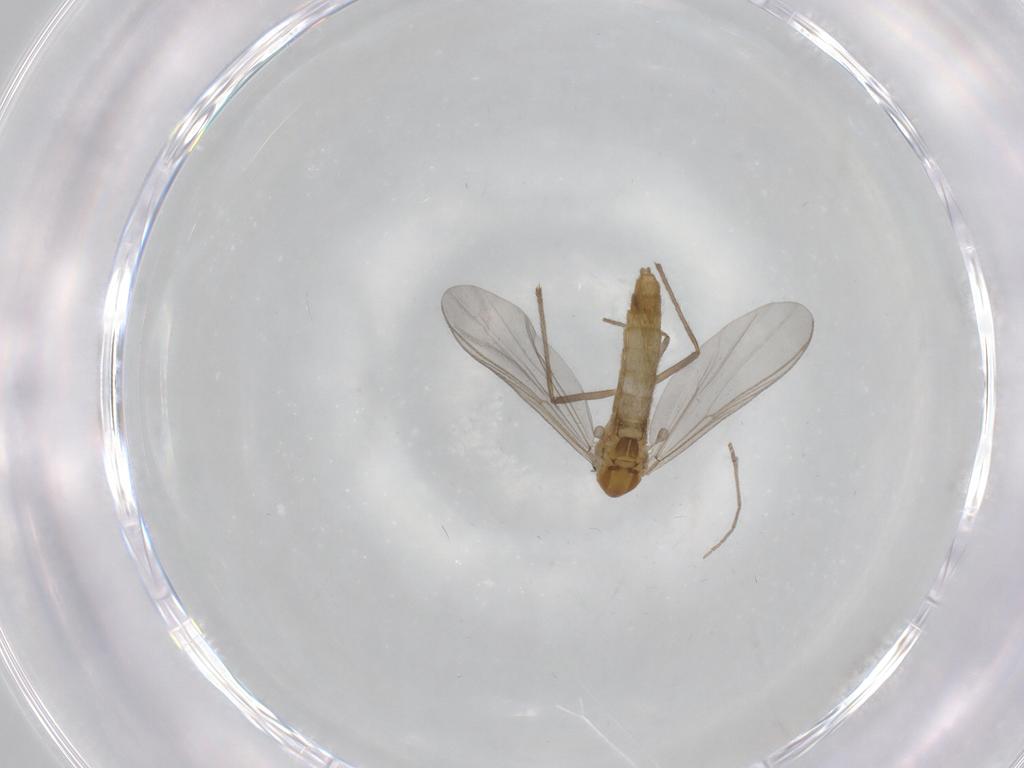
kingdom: Animalia
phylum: Arthropoda
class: Insecta
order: Diptera
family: Chironomidae
